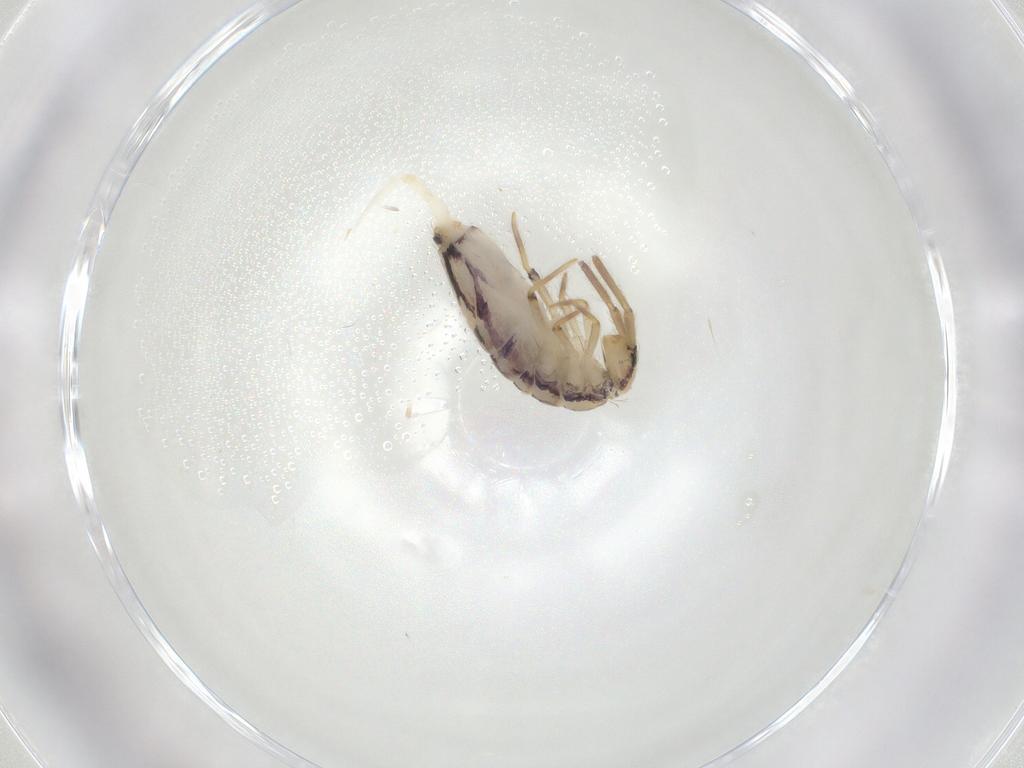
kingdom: Animalia
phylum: Arthropoda
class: Collembola
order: Entomobryomorpha
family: Entomobryidae
